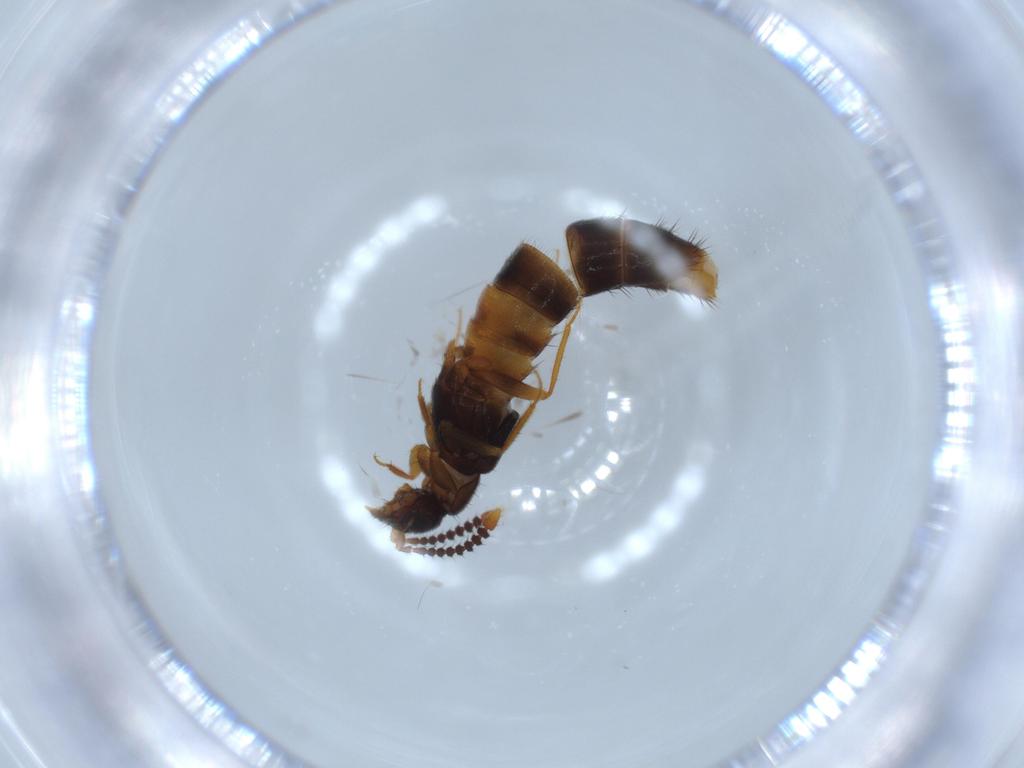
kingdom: Animalia
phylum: Arthropoda
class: Insecta
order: Coleoptera
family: Staphylinidae
